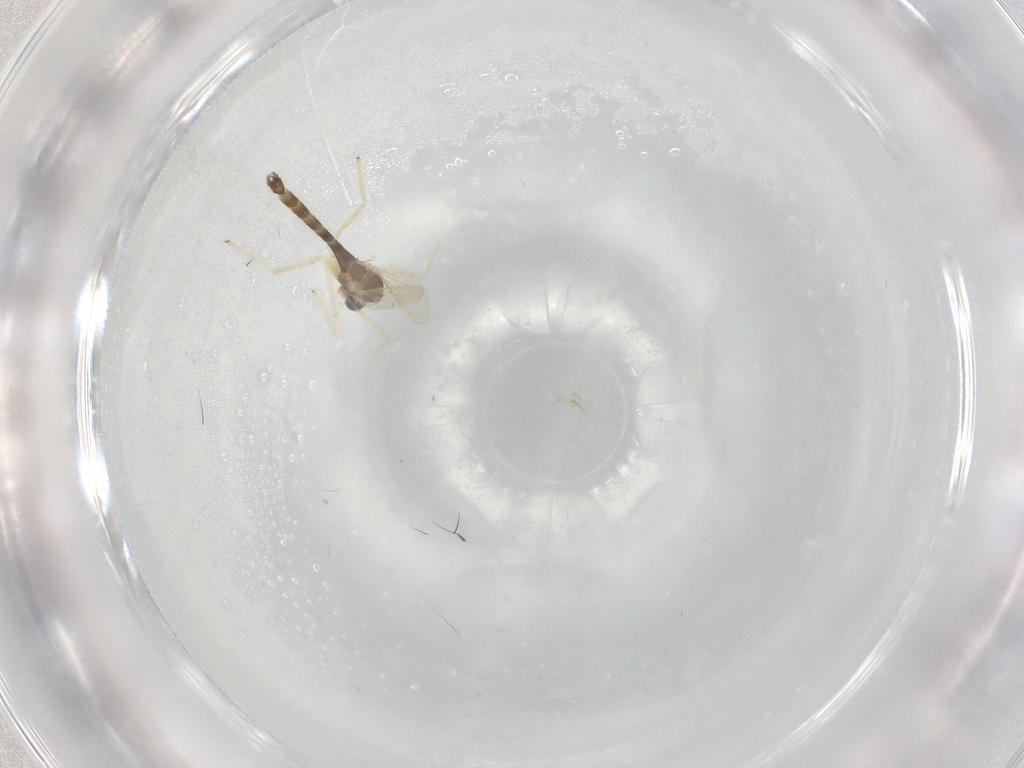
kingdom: Animalia
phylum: Arthropoda
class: Insecta
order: Diptera
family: Chironomidae
